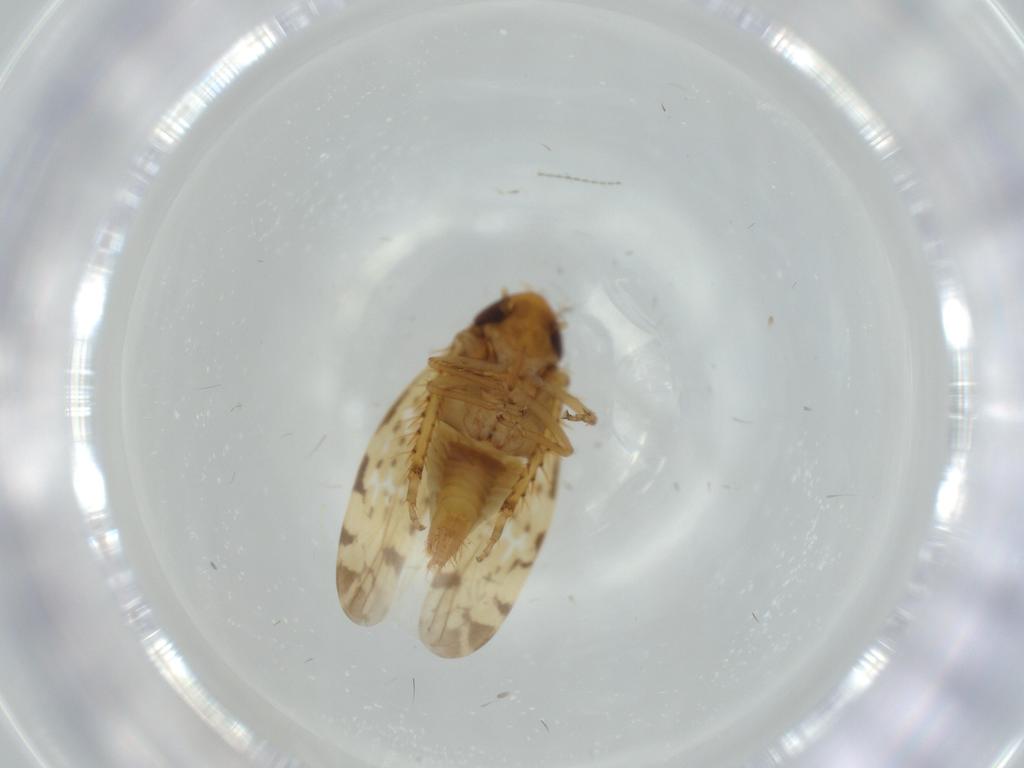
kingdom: Animalia
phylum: Arthropoda
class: Insecta
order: Hemiptera
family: Cicadellidae
